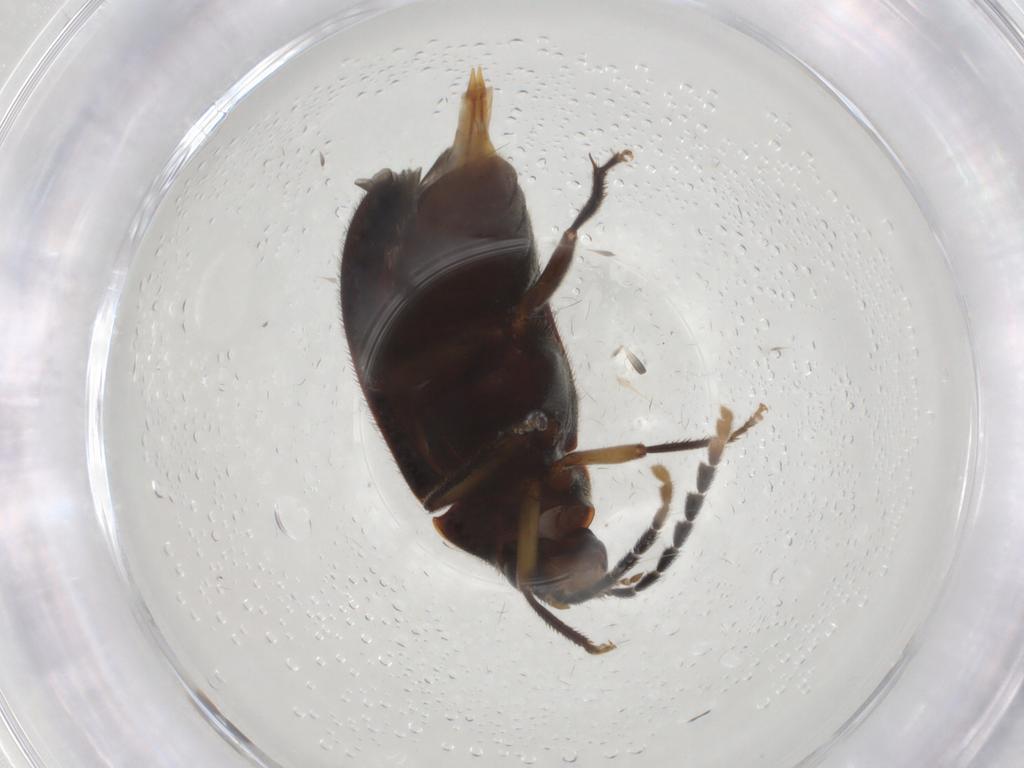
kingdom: Animalia
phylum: Arthropoda
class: Insecta
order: Coleoptera
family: Ptilodactylidae
